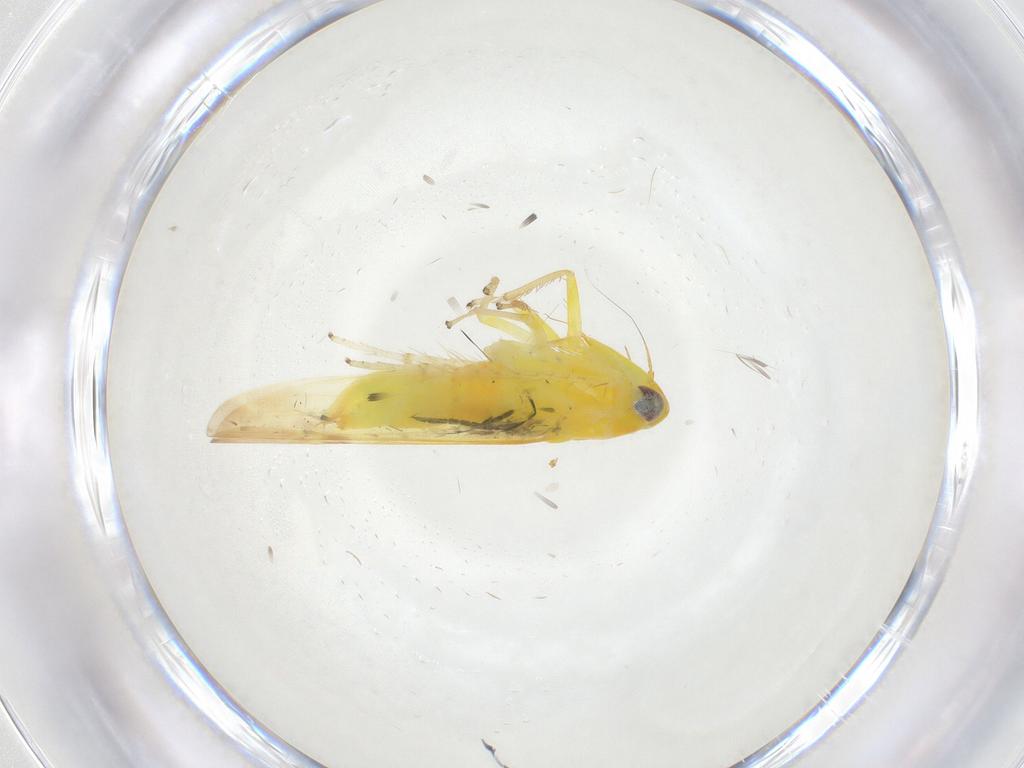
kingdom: Animalia
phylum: Arthropoda
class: Insecta
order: Hemiptera
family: Cicadellidae
